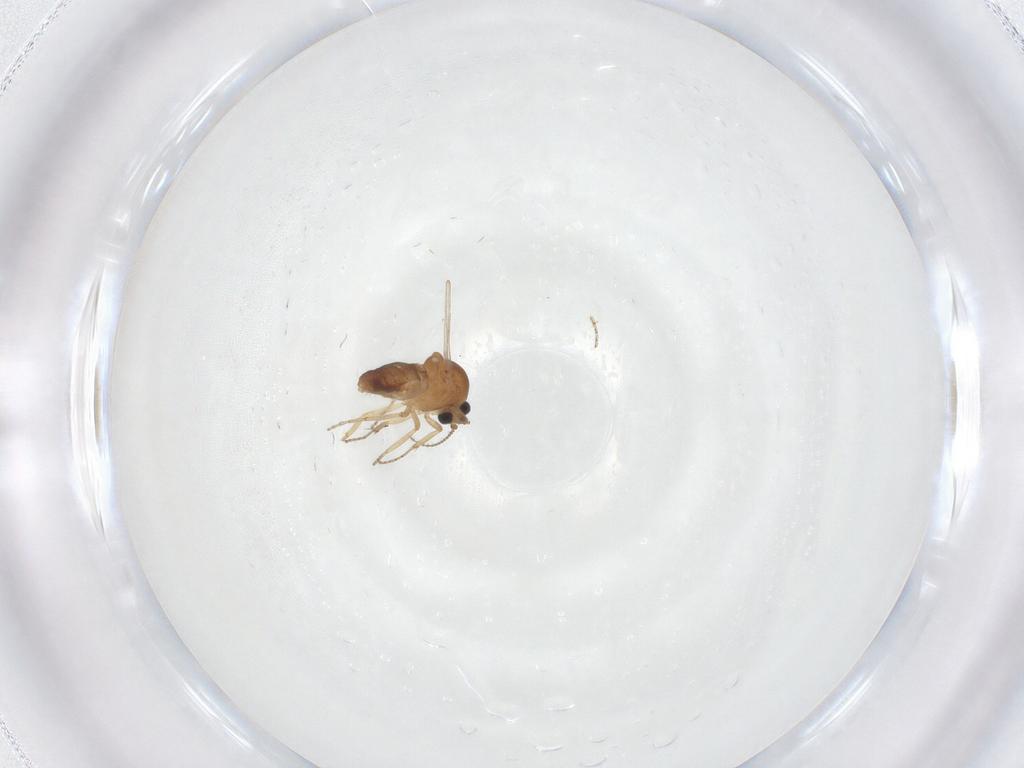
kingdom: Animalia
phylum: Arthropoda
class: Insecta
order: Diptera
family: Ceratopogonidae
